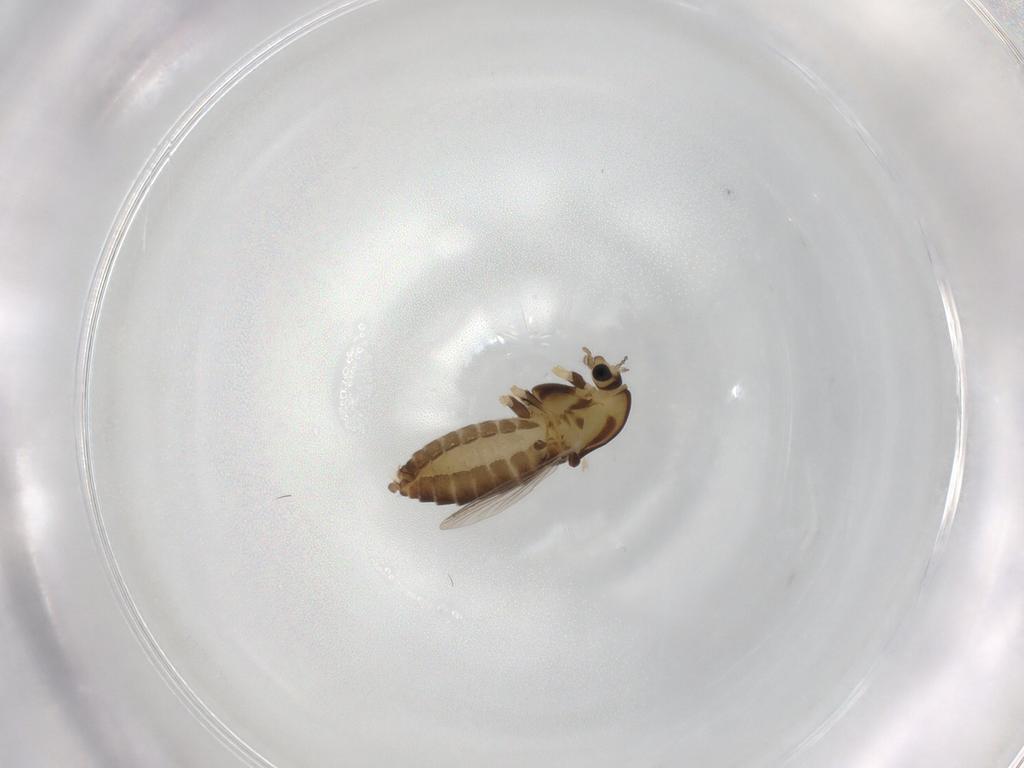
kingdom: Animalia
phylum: Arthropoda
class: Insecta
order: Diptera
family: Chironomidae
